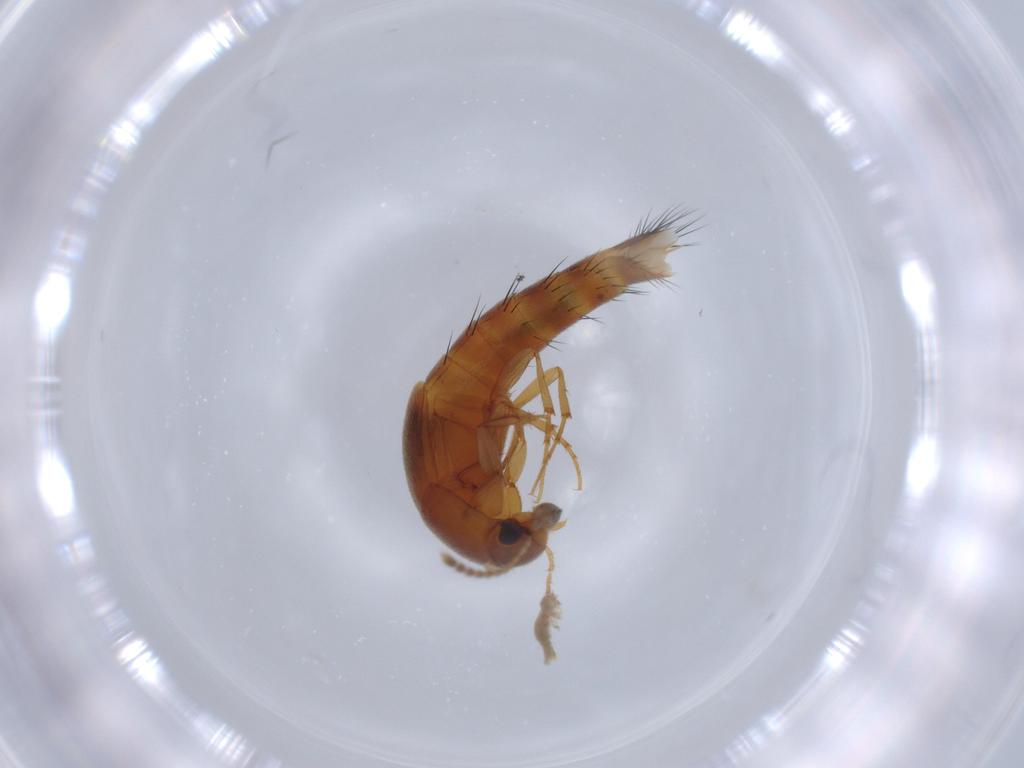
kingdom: Animalia
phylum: Arthropoda
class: Insecta
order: Coleoptera
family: Staphylinidae
